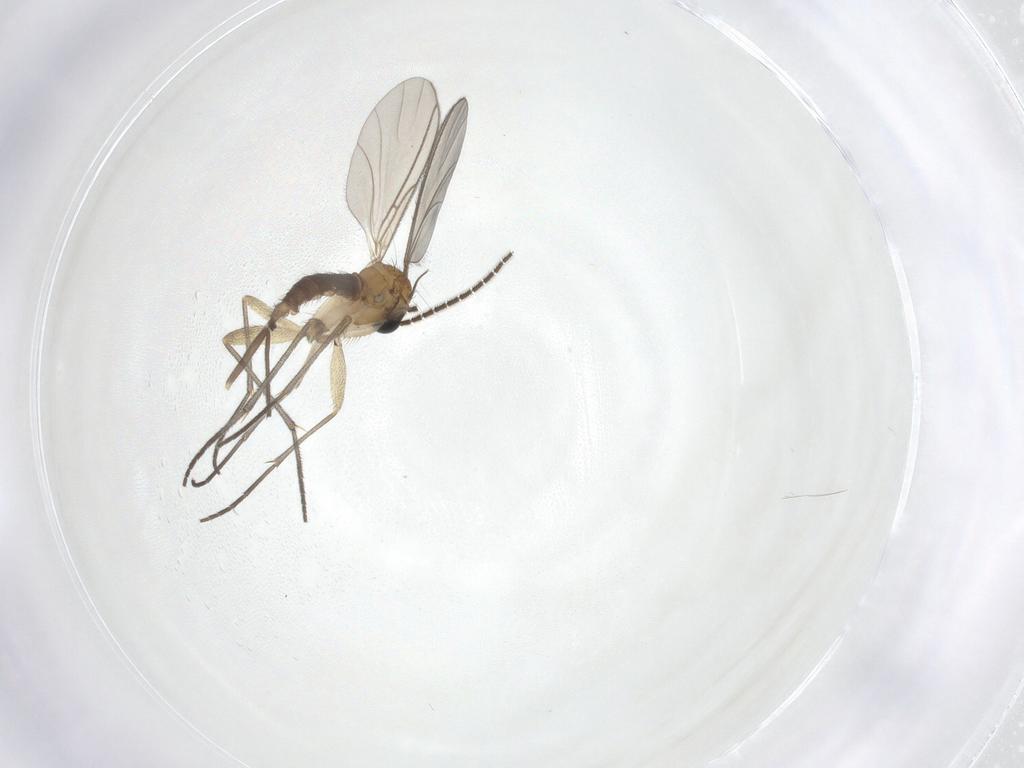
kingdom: Animalia
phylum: Arthropoda
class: Insecta
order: Diptera
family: Sciaridae
